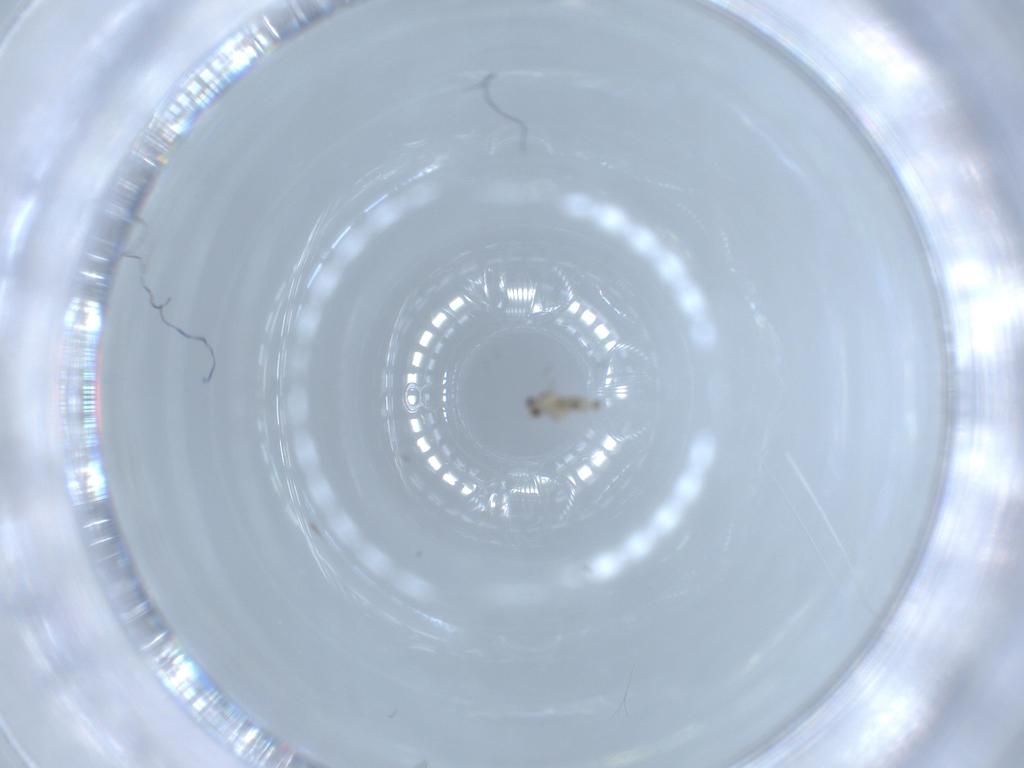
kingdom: Animalia
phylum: Arthropoda
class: Insecta
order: Diptera
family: Cecidomyiidae
